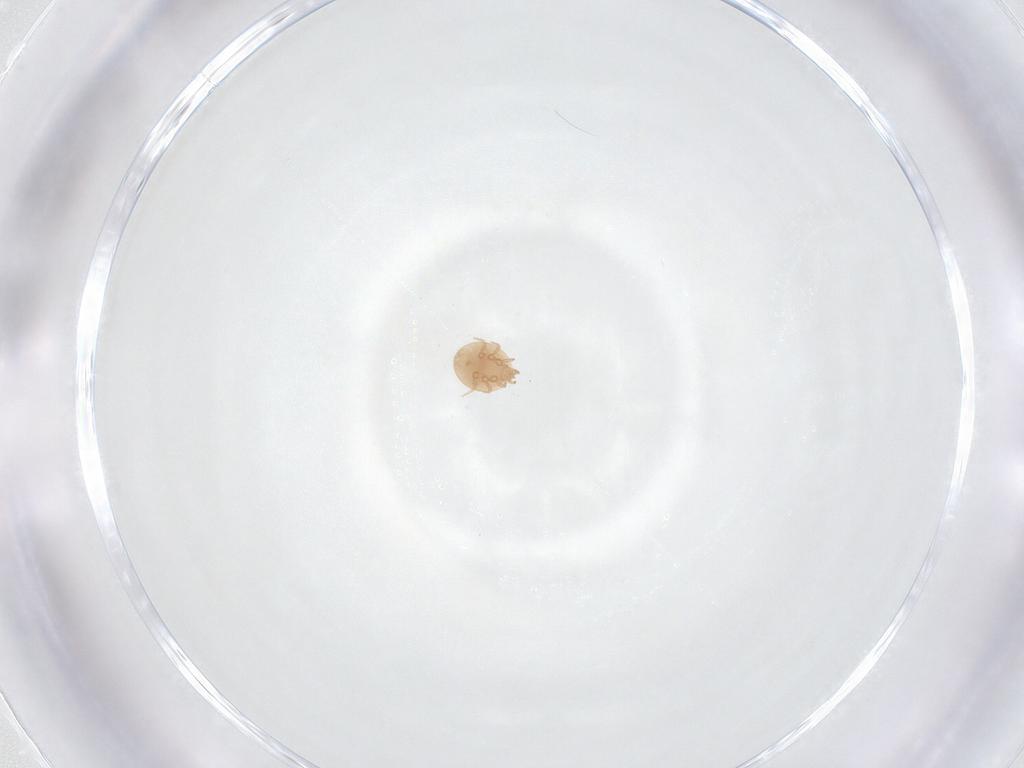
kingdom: Animalia
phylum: Arthropoda
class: Arachnida
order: Mesostigmata
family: Trematuridae
